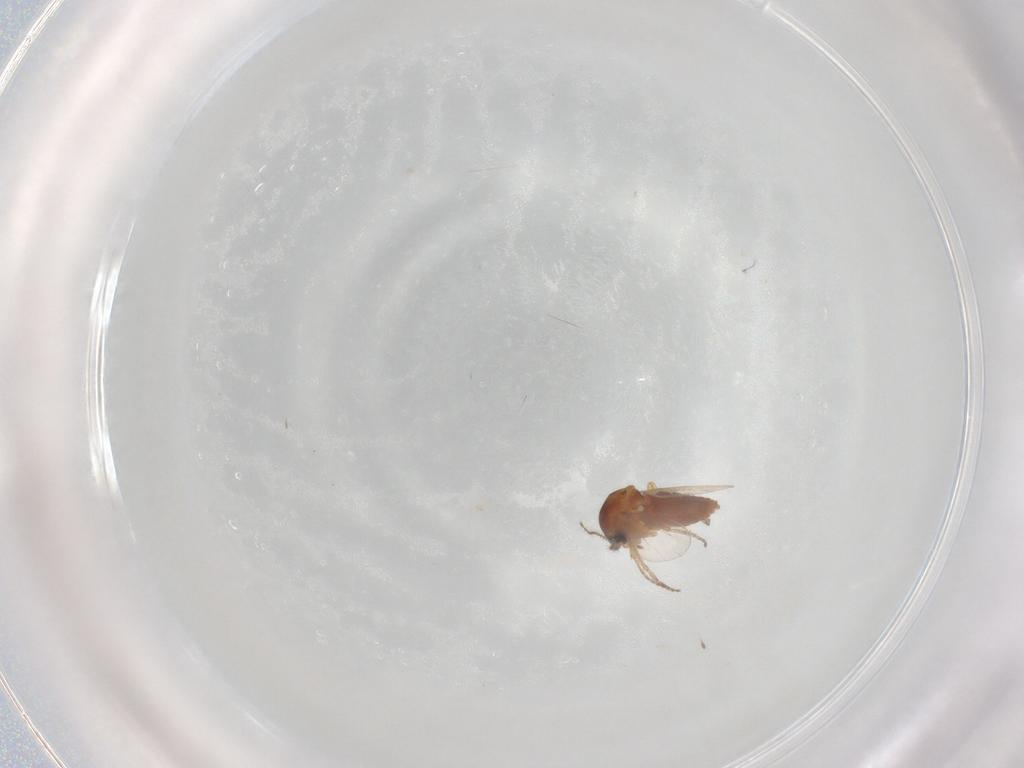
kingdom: Animalia
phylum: Arthropoda
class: Insecta
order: Diptera
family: Ceratopogonidae
